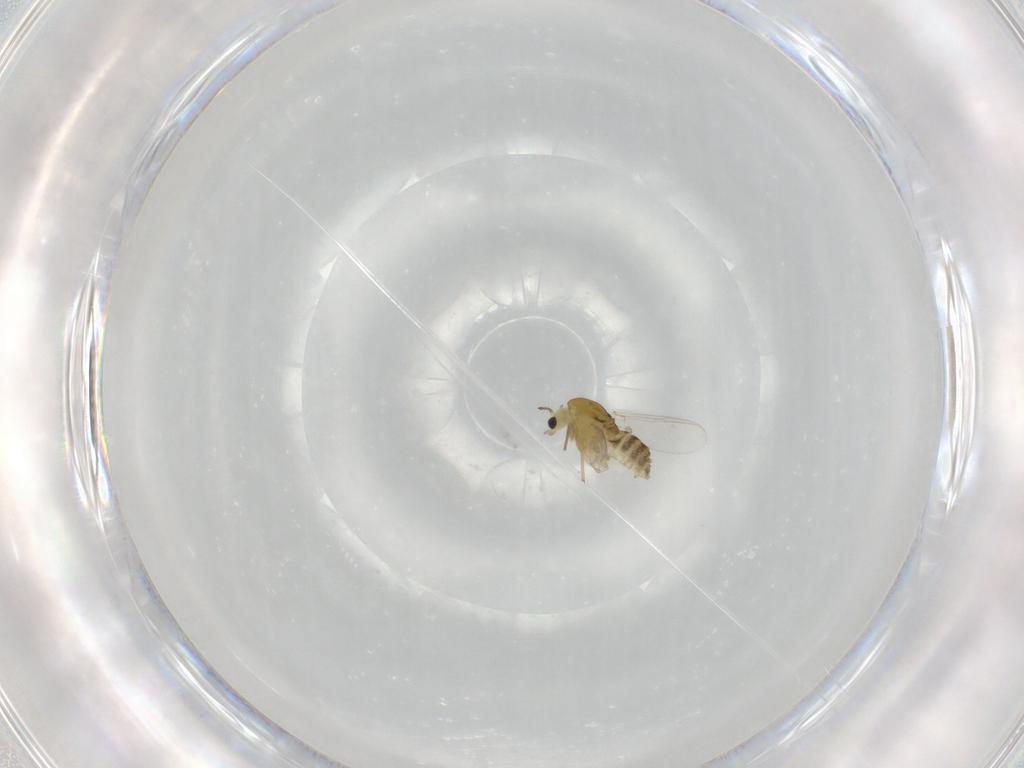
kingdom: Animalia
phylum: Arthropoda
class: Insecta
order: Diptera
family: Chironomidae
